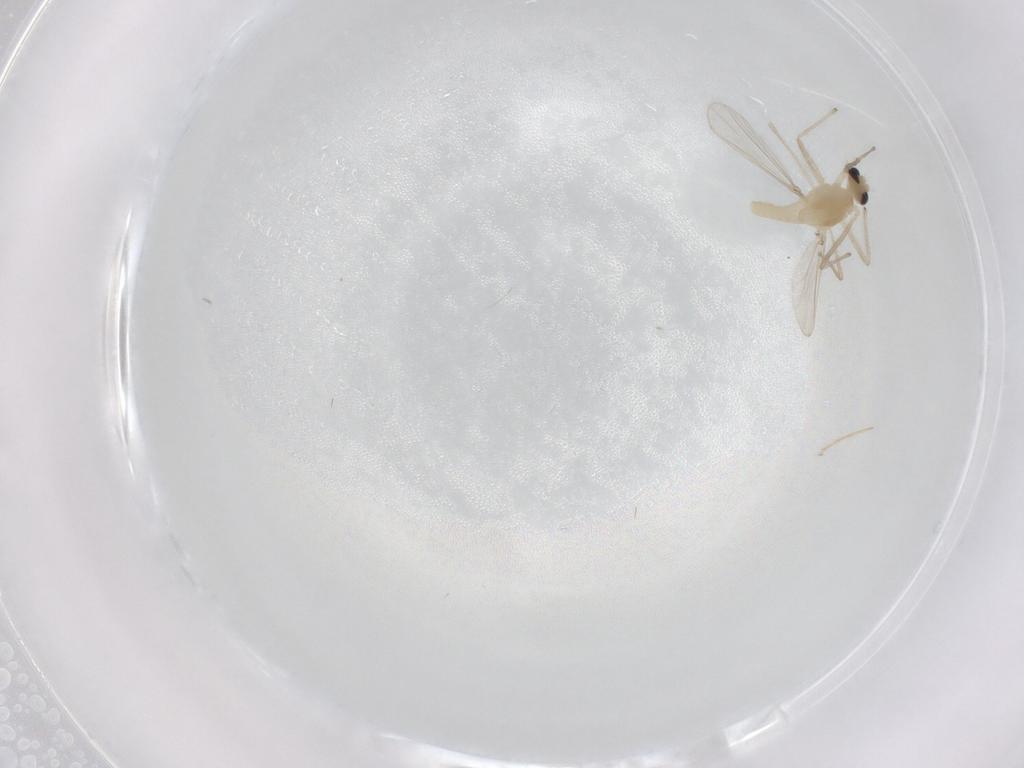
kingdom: Animalia
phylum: Arthropoda
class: Insecta
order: Diptera
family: Chironomidae
